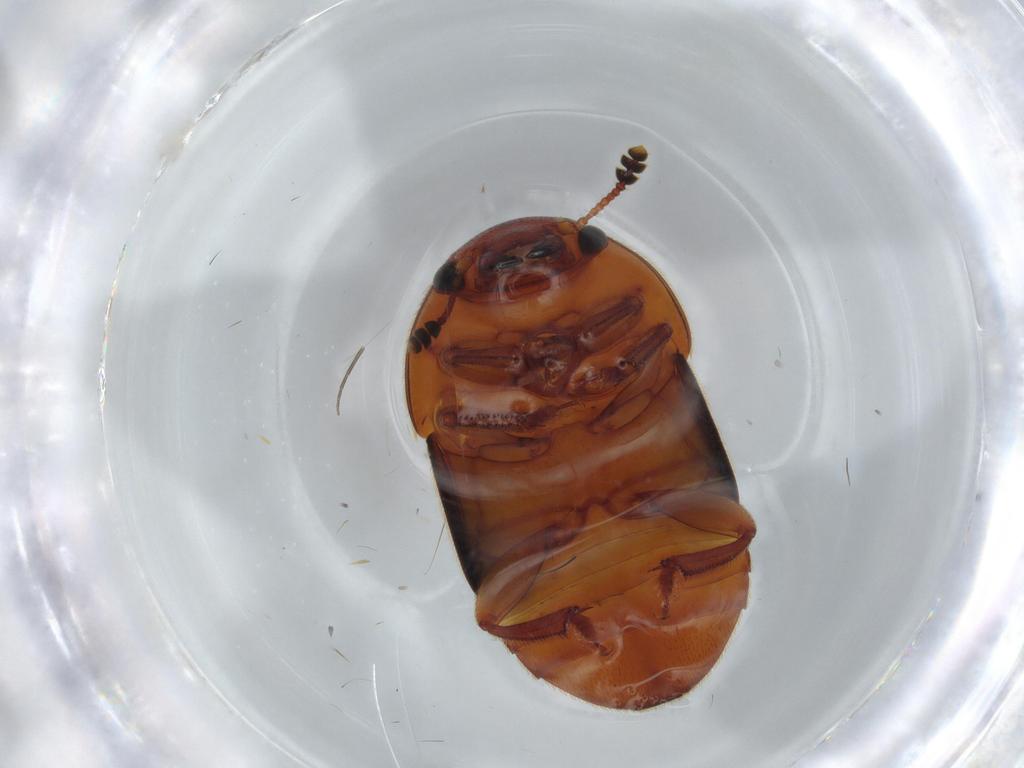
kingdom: Animalia
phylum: Arthropoda
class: Insecta
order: Coleoptera
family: Nitidulidae
